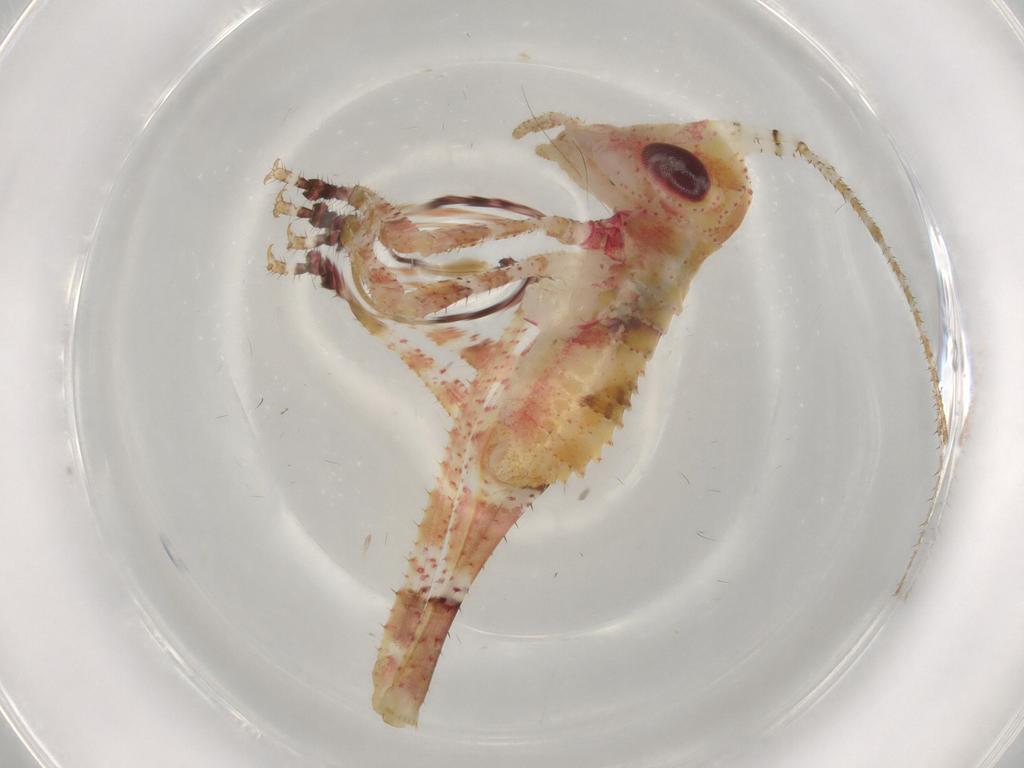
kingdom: Animalia
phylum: Arthropoda
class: Insecta
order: Orthoptera
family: Tettigoniidae
